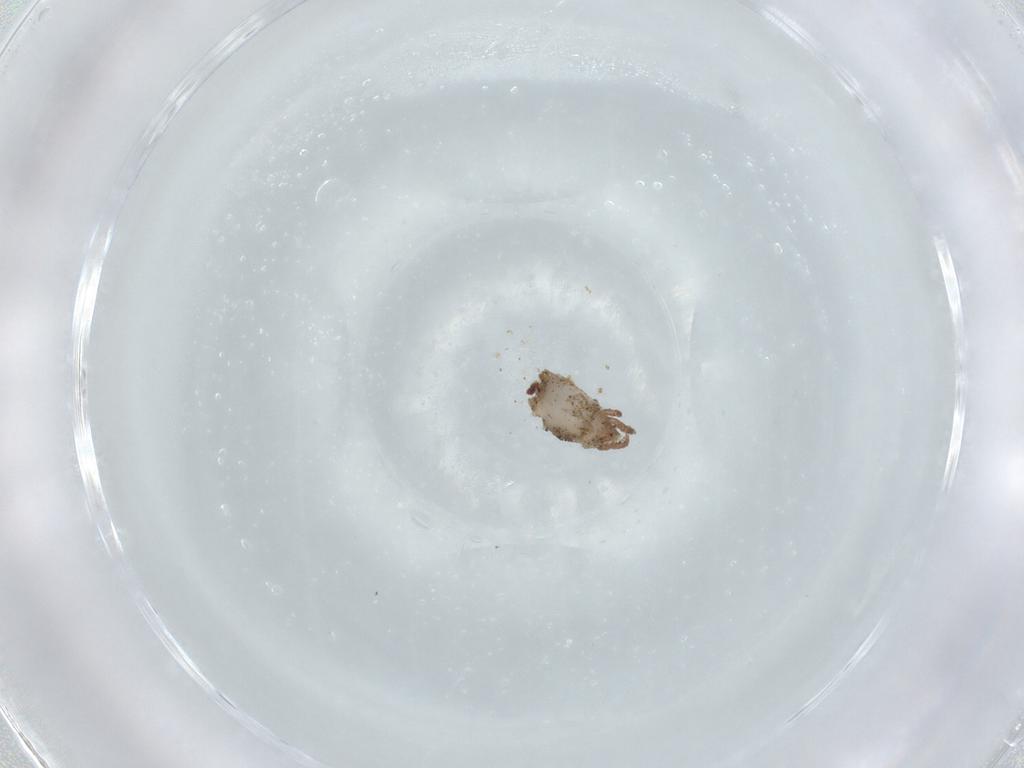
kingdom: Animalia
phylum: Arthropoda
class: Arachnida
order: Sarcoptiformes
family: Crotoniidae
